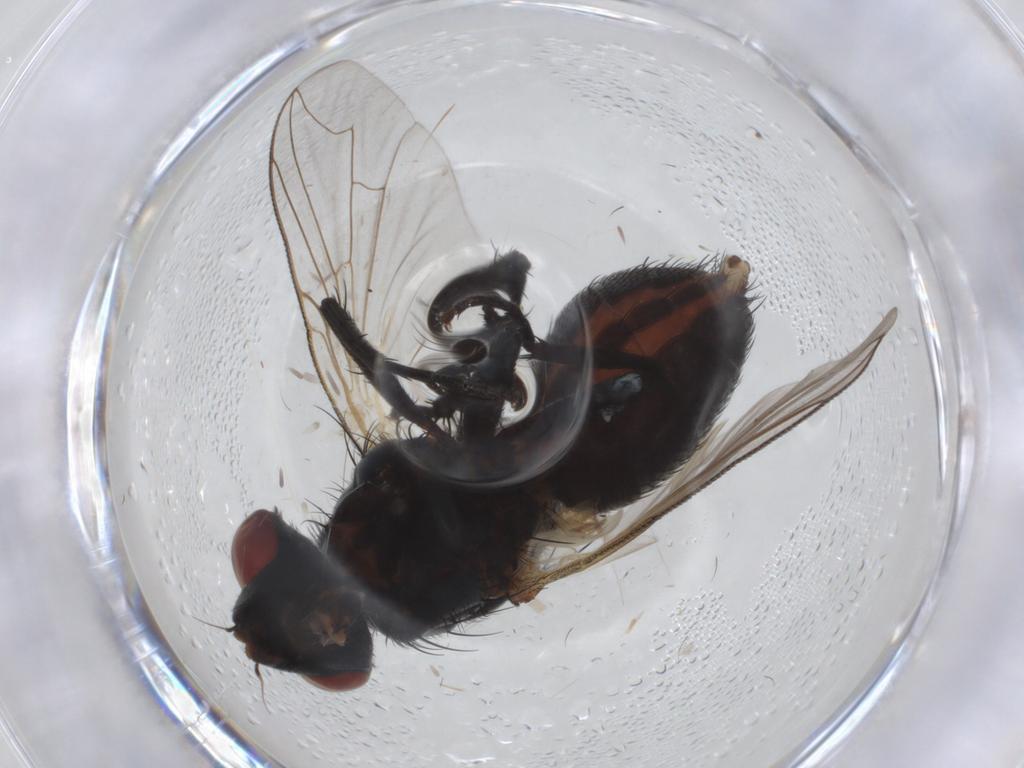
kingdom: Animalia
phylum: Arthropoda
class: Insecta
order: Diptera
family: Sarcophagidae
